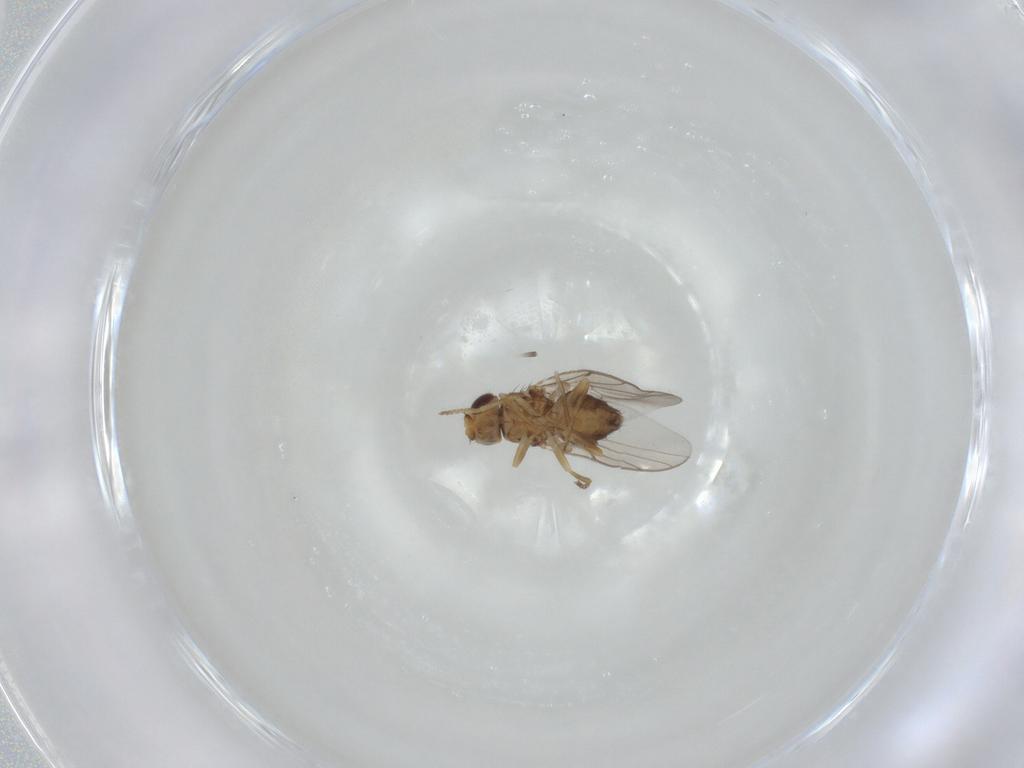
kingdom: Animalia
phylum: Arthropoda
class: Insecta
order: Diptera
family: Chloropidae
